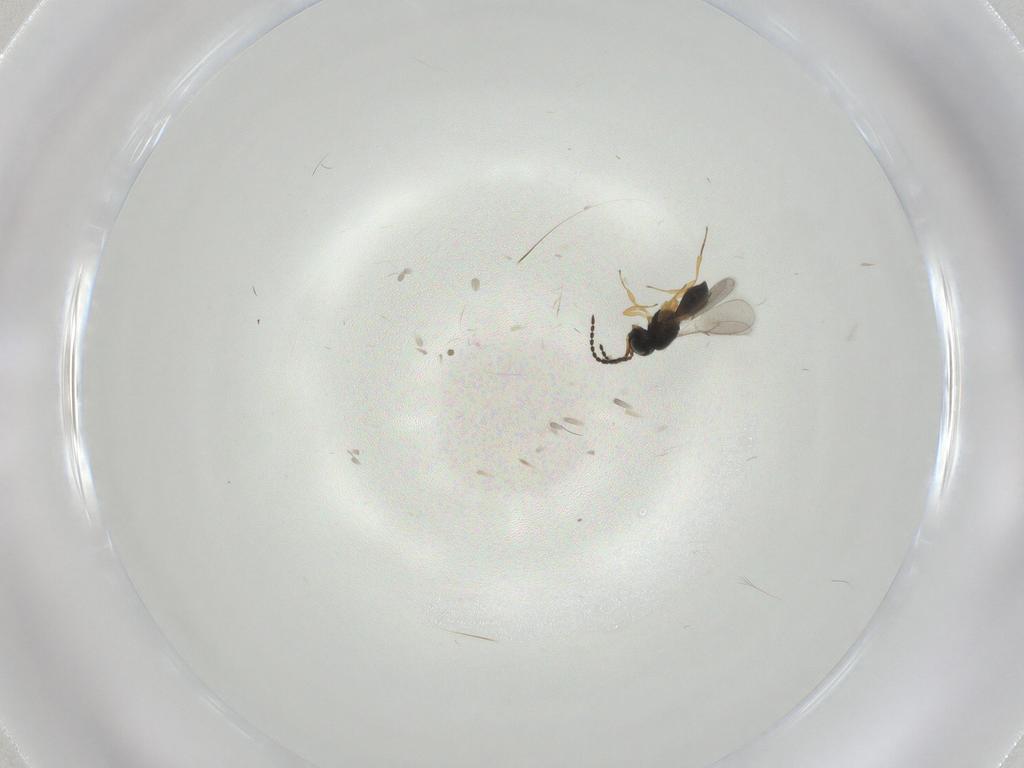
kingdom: Animalia
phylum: Arthropoda
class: Insecta
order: Hymenoptera
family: Scelionidae
